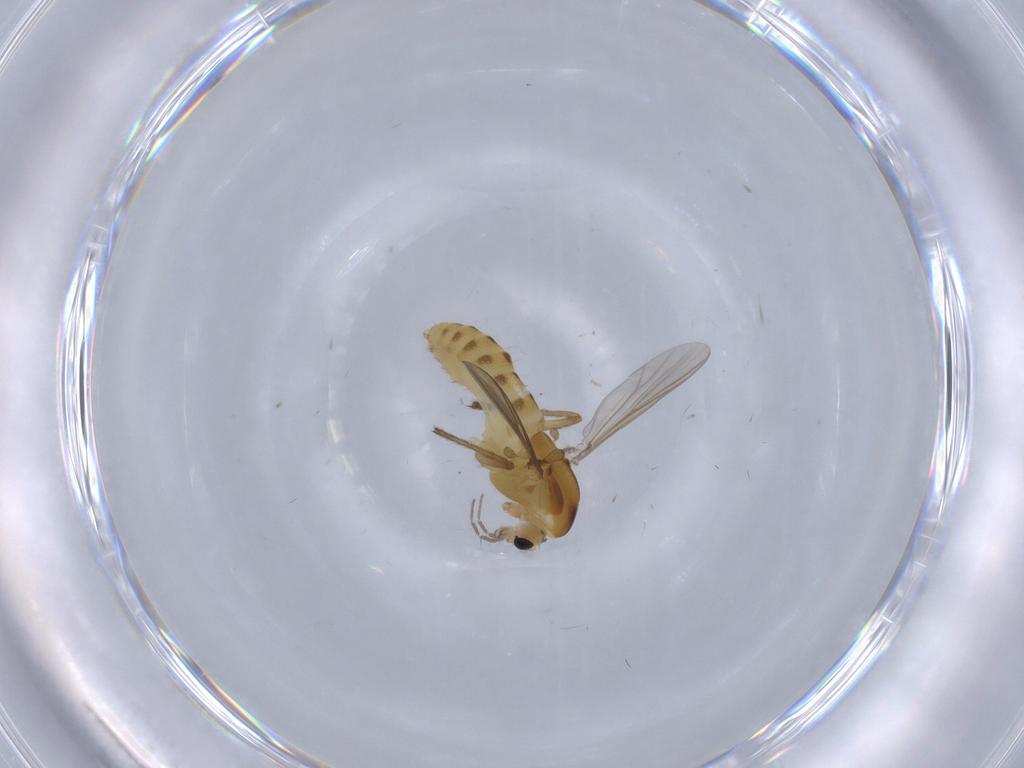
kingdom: Animalia
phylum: Arthropoda
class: Insecta
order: Diptera
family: Chironomidae
